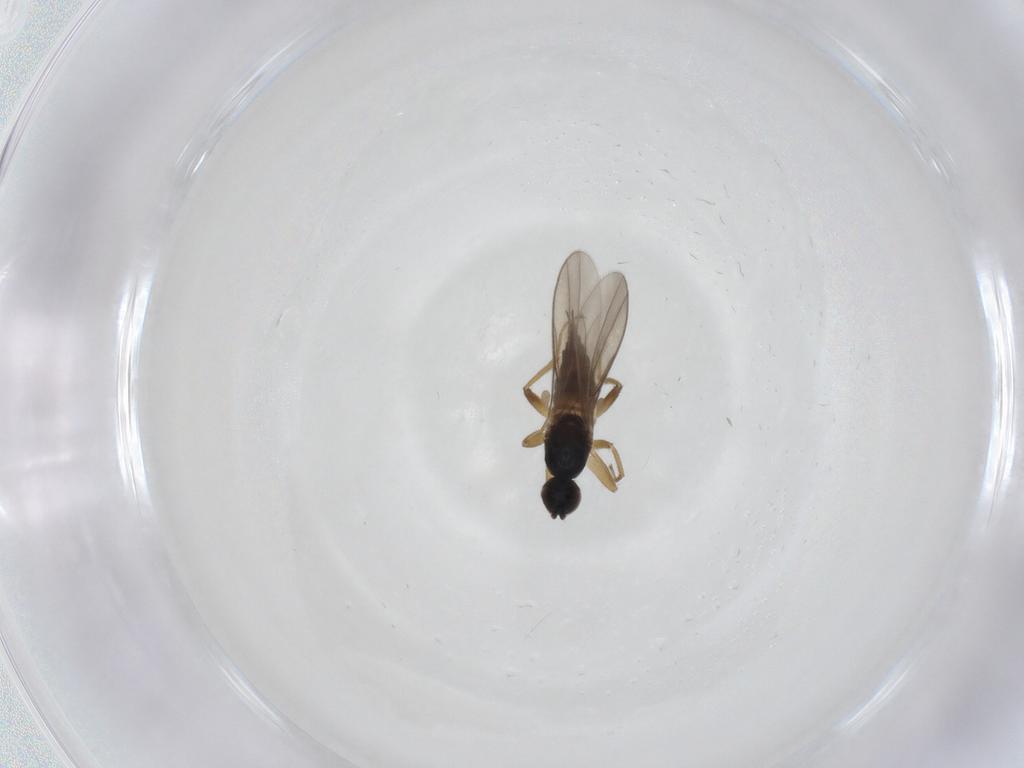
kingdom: Animalia
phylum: Arthropoda
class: Insecta
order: Diptera
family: Hybotidae
